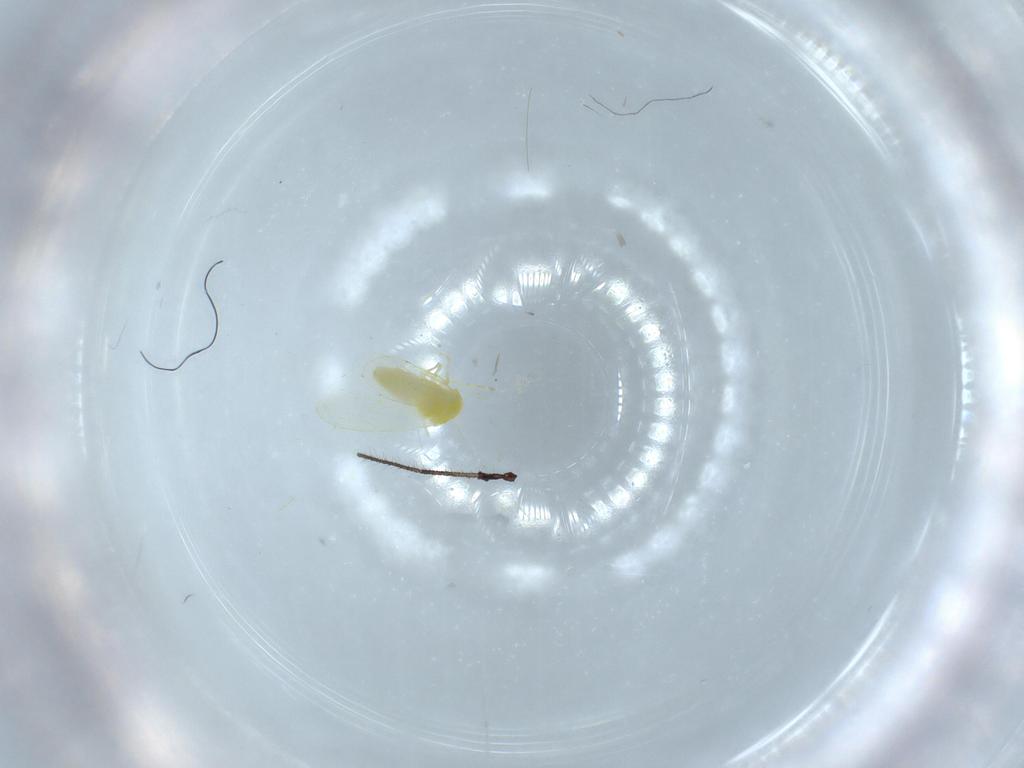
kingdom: Animalia
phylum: Arthropoda
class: Insecta
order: Hemiptera
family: Aleyrodidae
